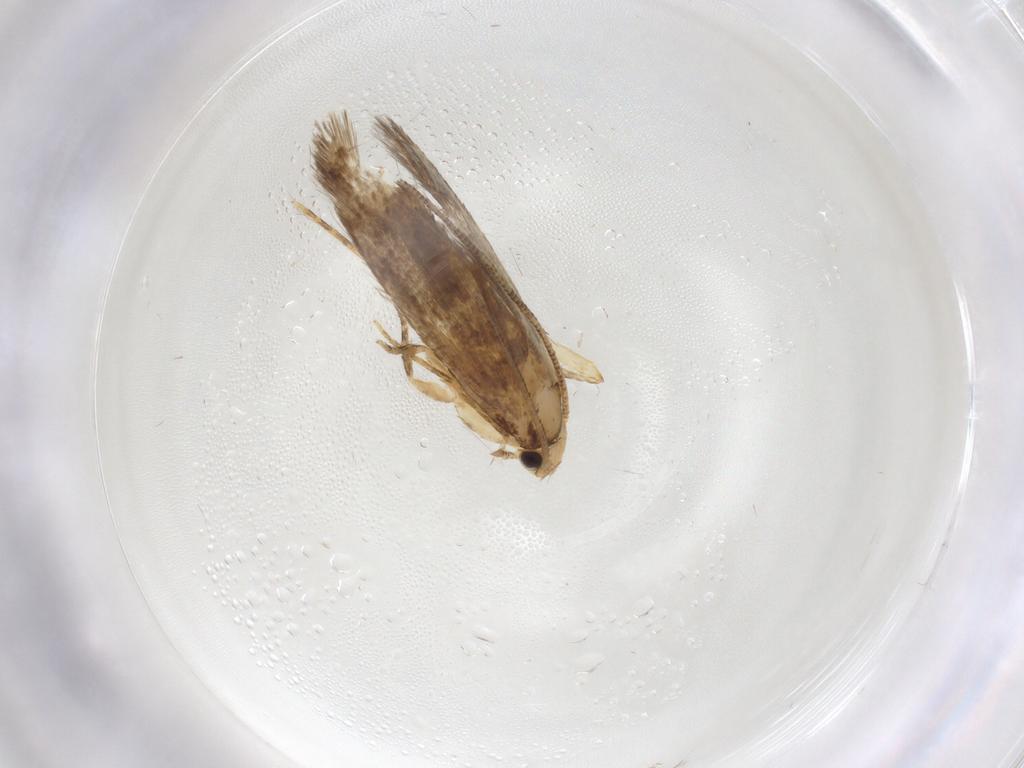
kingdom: Animalia
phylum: Arthropoda
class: Insecta
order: Lepidoptera
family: Tineidae
